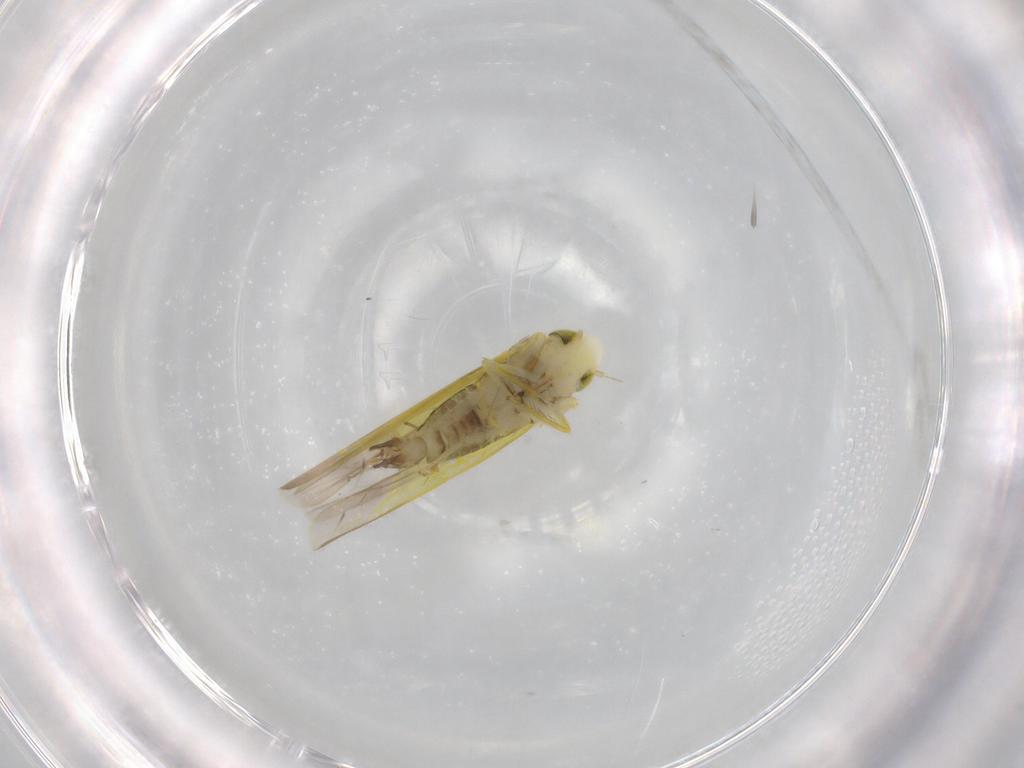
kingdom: Animalia
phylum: Arthropoda
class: Insecta
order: Hemiptera
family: Cicadellidae
